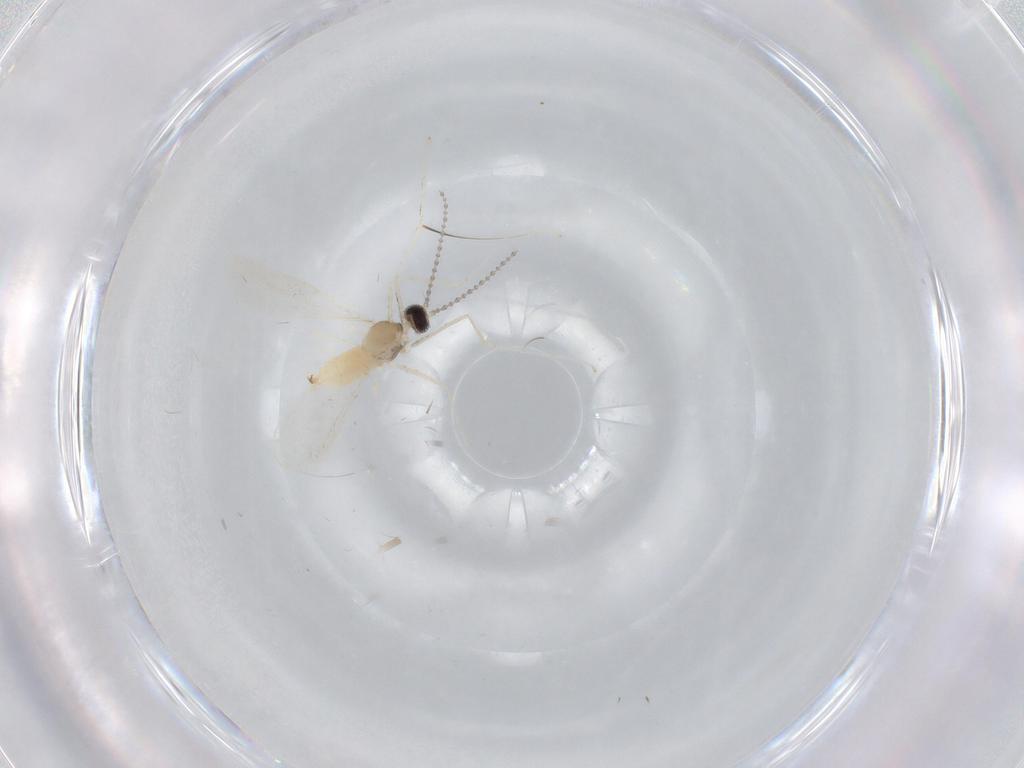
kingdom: Animalia
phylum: Arthropoda
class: Insecta
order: Diptera
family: Cecidomyiidae
